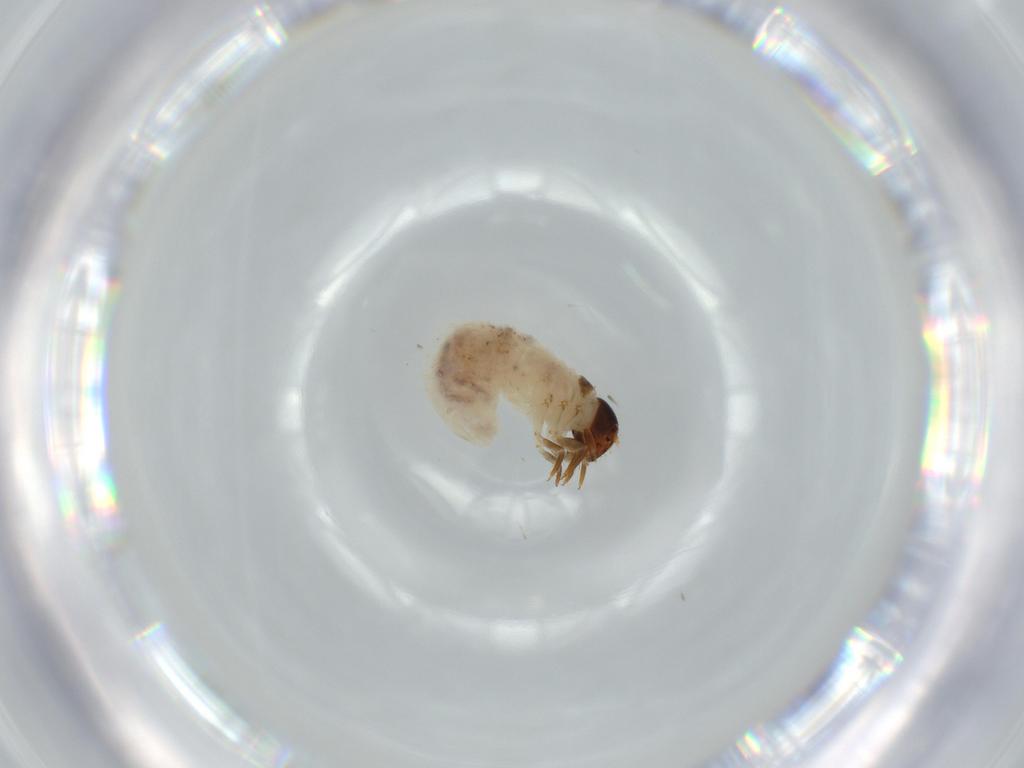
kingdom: Animalia
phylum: Arthropoda
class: Insecta
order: Coleoptera
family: Chrysomelidae
